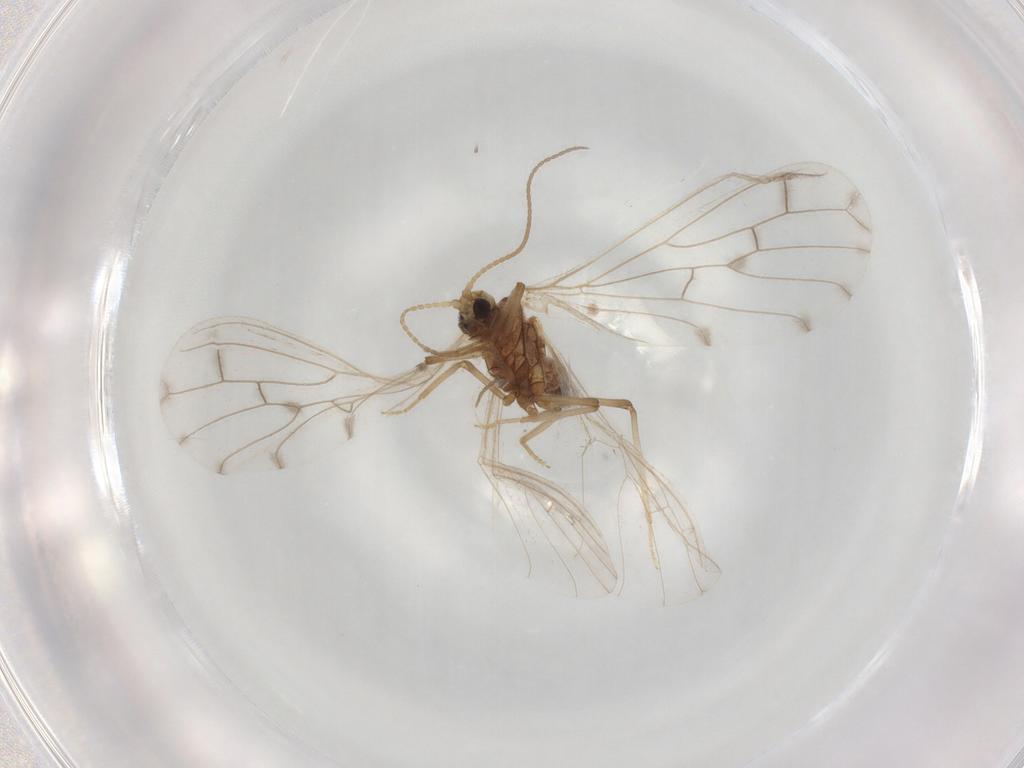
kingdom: Animalia
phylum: Arthropoda
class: Insecta
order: Neuroptera
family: Coniopterygidae
